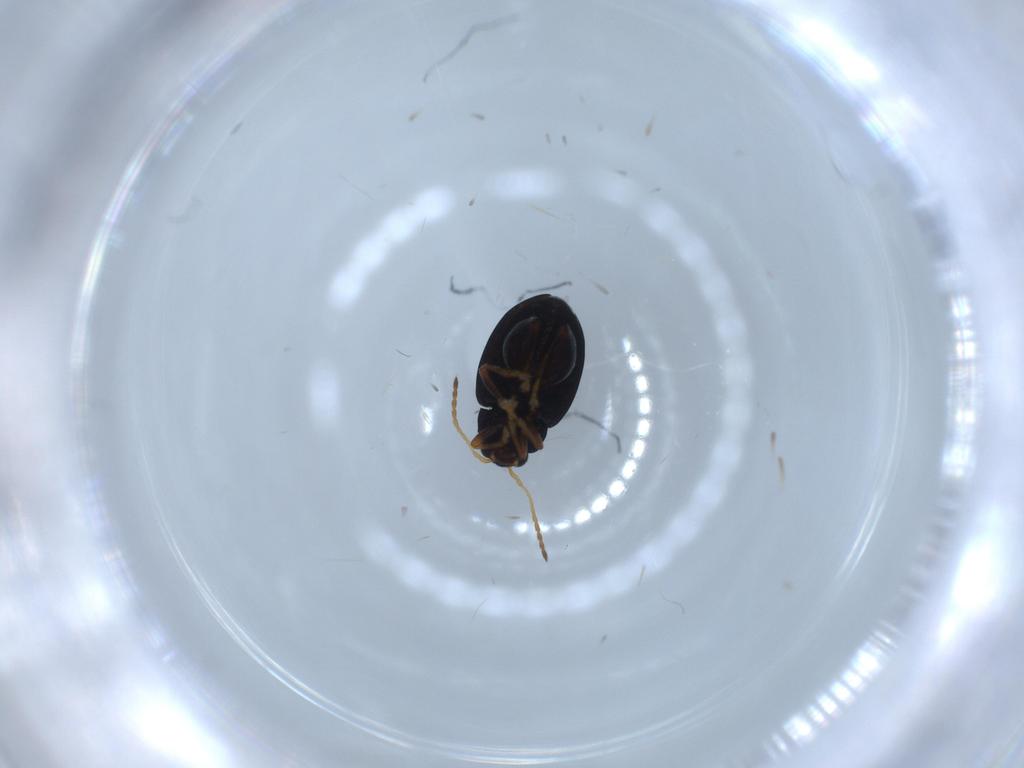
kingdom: Animalia
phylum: Arthropoda
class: Insecta
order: Coleoptera
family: Chrysomelidae
